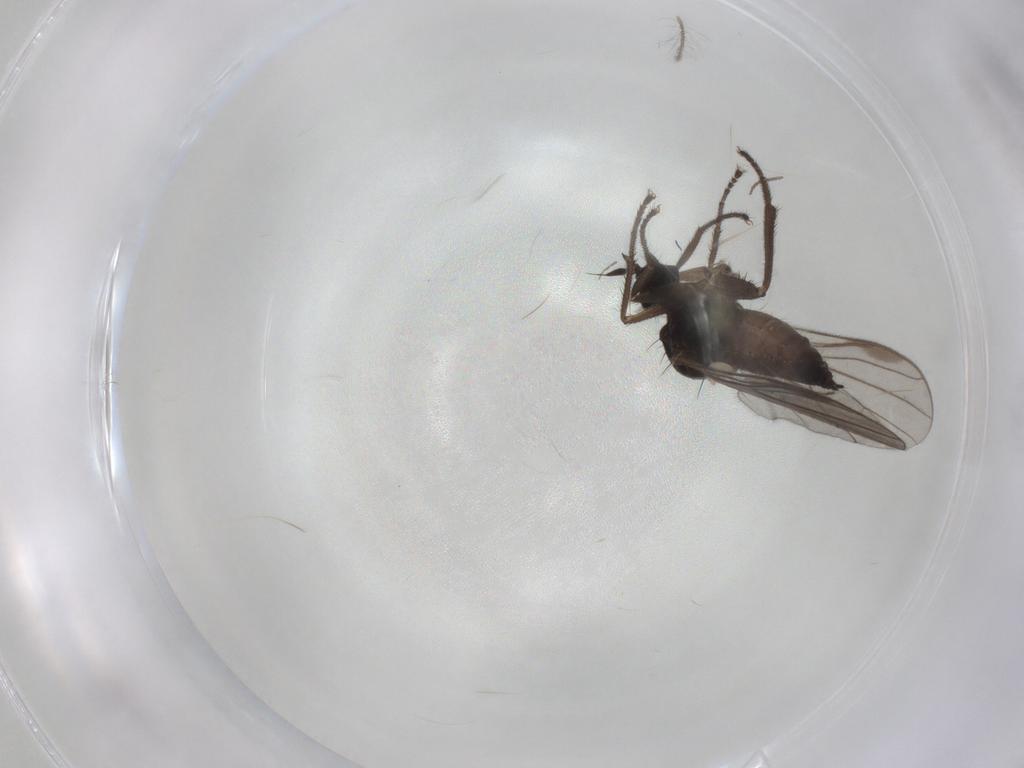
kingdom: Animalia
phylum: Arthropoda
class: Insecta
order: Diptera
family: Hybotidae
